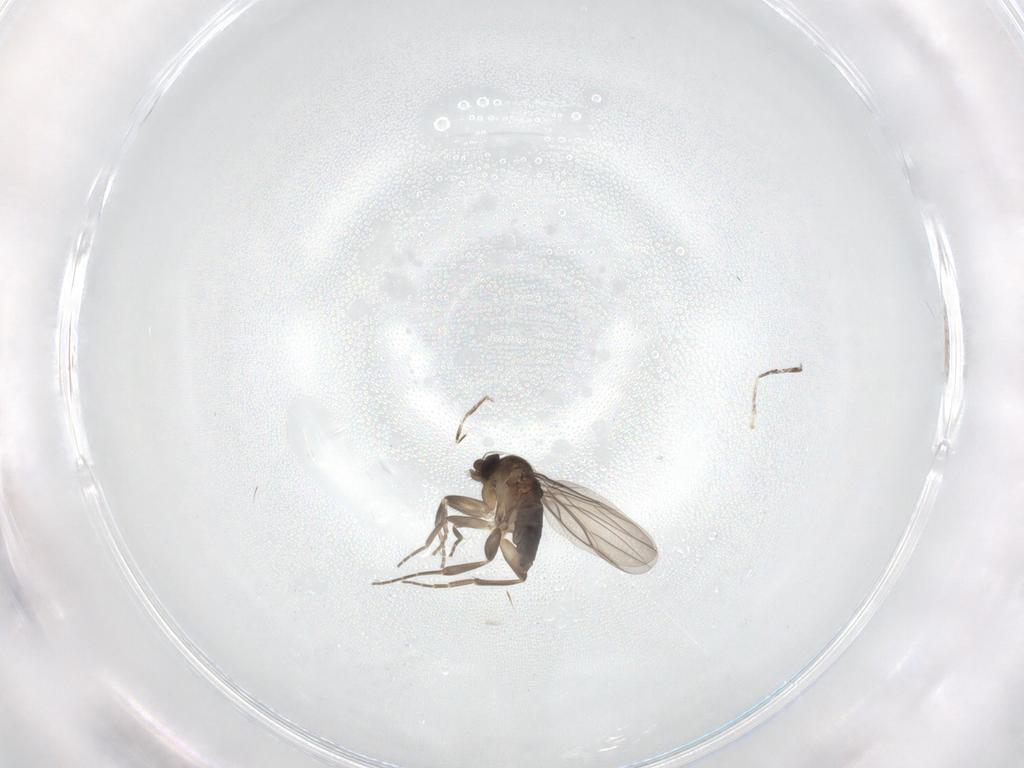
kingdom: Animalia
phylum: Arthropoda
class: Insecta
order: Diptera
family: Phoridae
